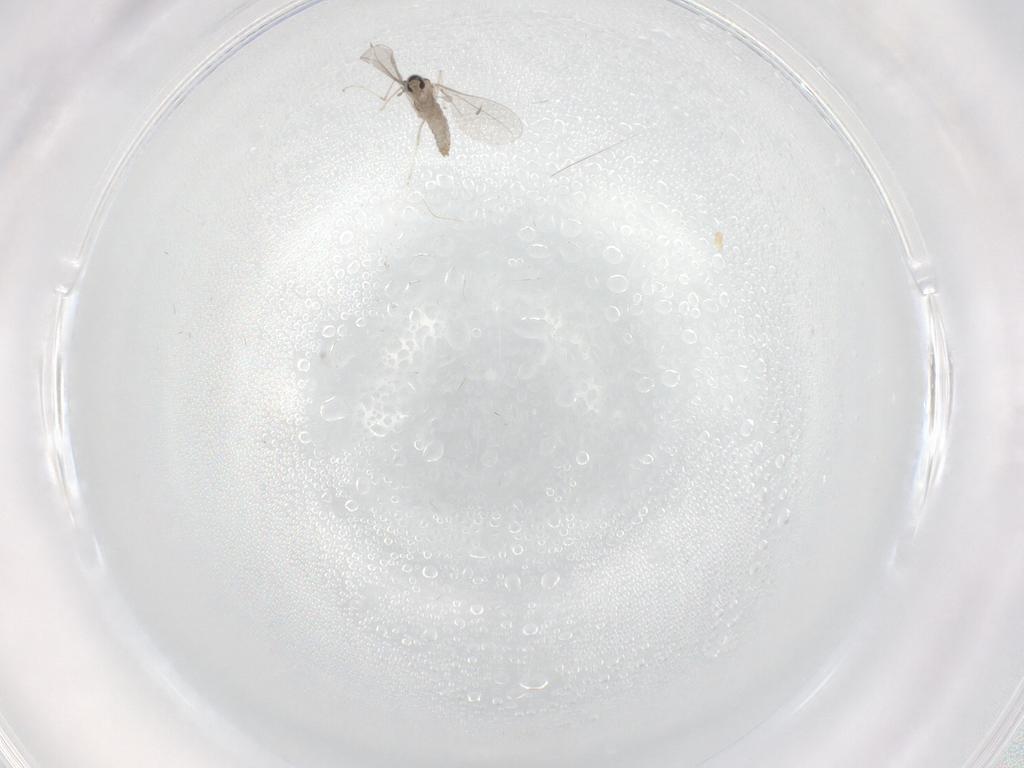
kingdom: Animalia
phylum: Arthropoda
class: Insecta
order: Diptera
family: Cecidomyiidae
